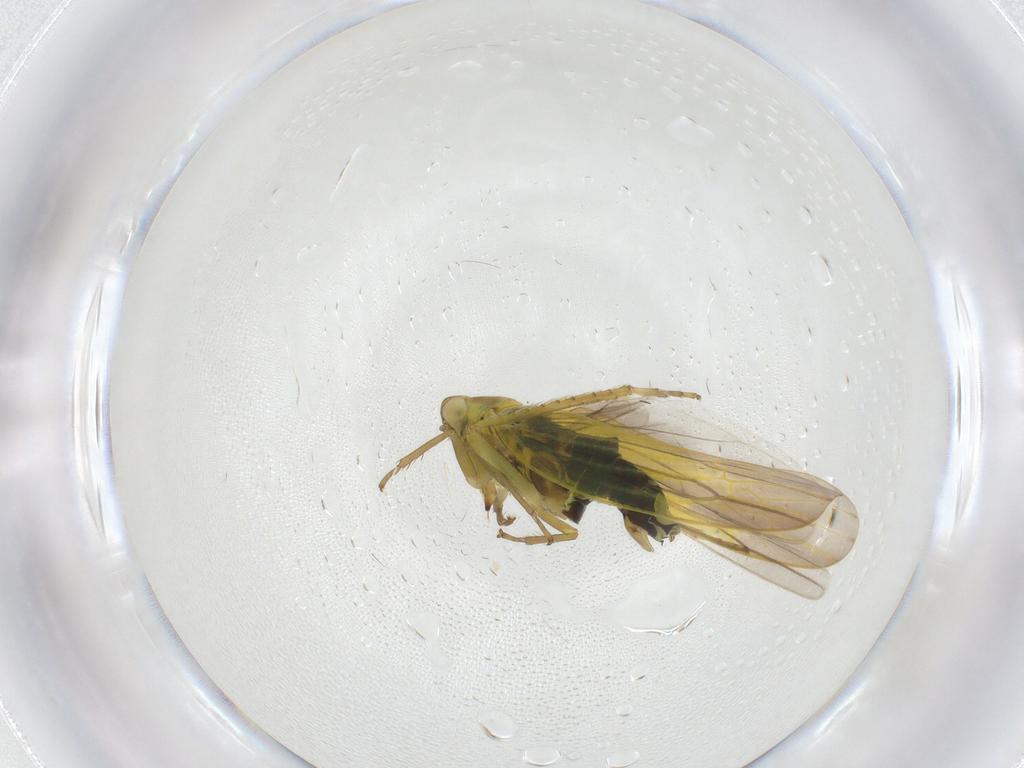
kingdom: Animalia
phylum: Arthropoda
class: Insecta
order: Hemiptera
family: Cicadellidae
